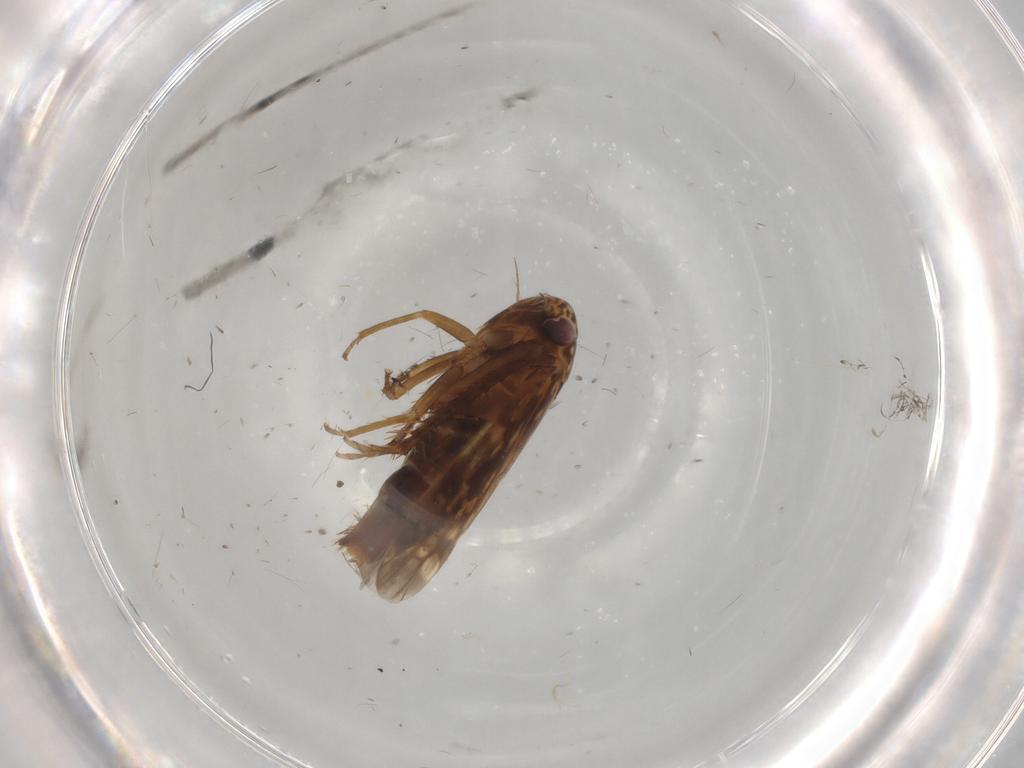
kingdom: Animalia
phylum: Arthropoda
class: Insecta
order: Hemiptera
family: Cicadellidae
